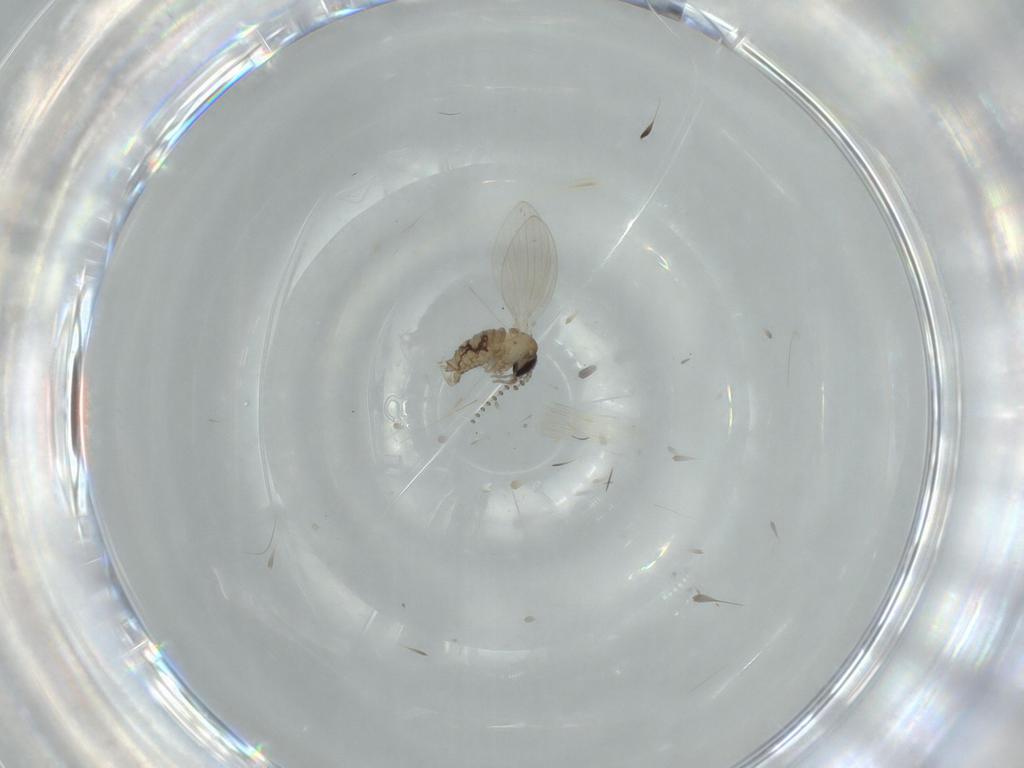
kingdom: Animalia
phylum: Arthropoda
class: Insecta
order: Diptera
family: Psychodidae
